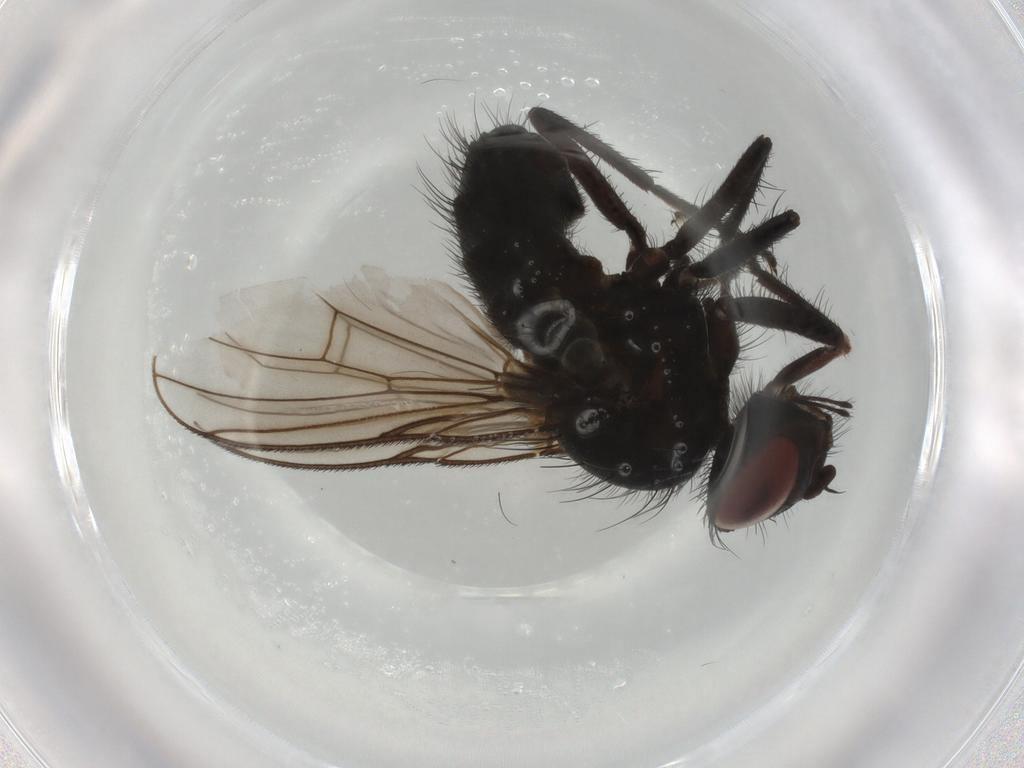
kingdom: Animalia
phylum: Arthropoda
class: Insecta
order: Diptera
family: Muscidae
